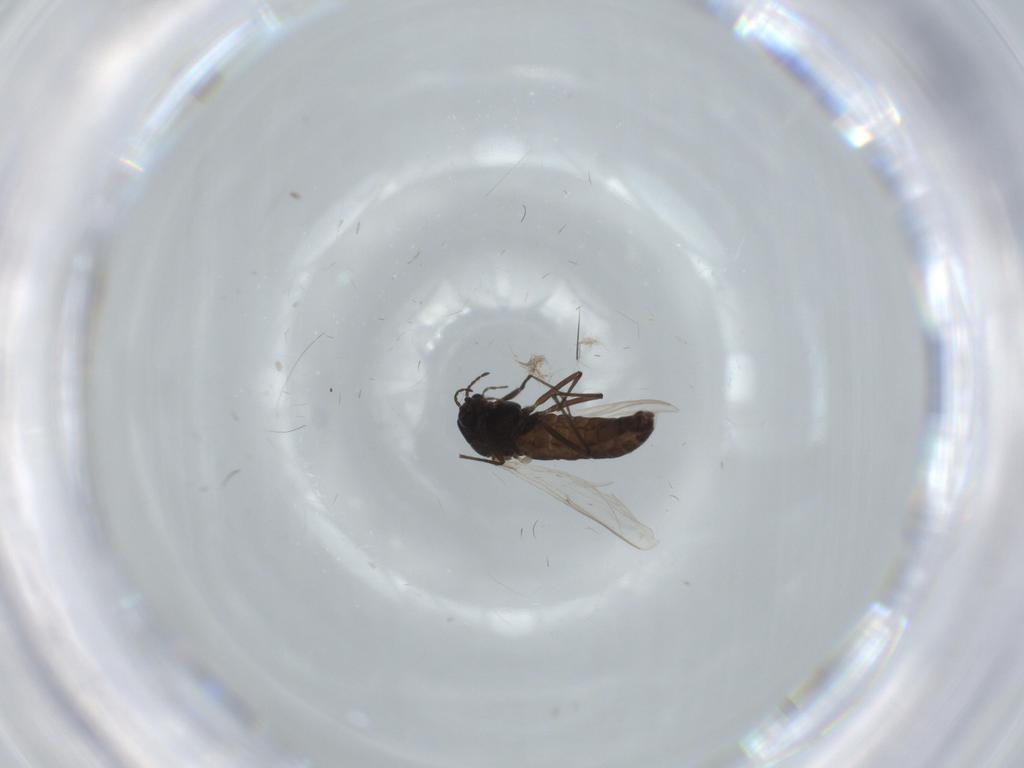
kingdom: Animalia
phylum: Arthropoda
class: Insecta
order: Diptera
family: Chironomidae
